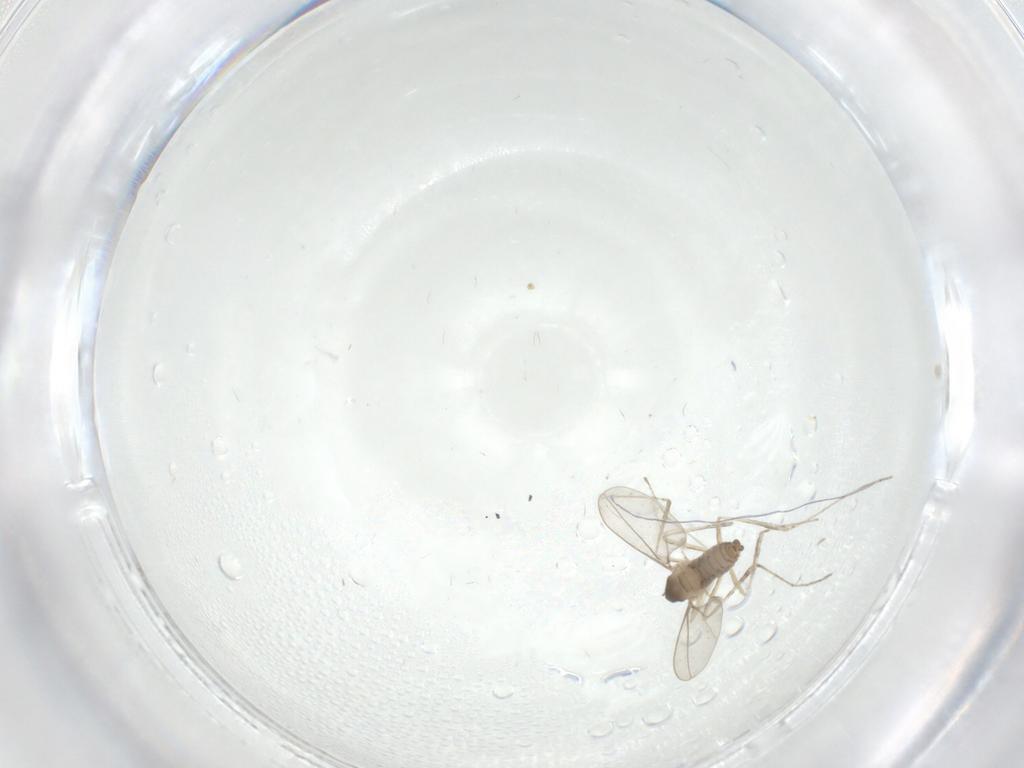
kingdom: Animalia
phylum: Arthropoda
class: Insecta
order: Diptera
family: Cecidomyiidae
